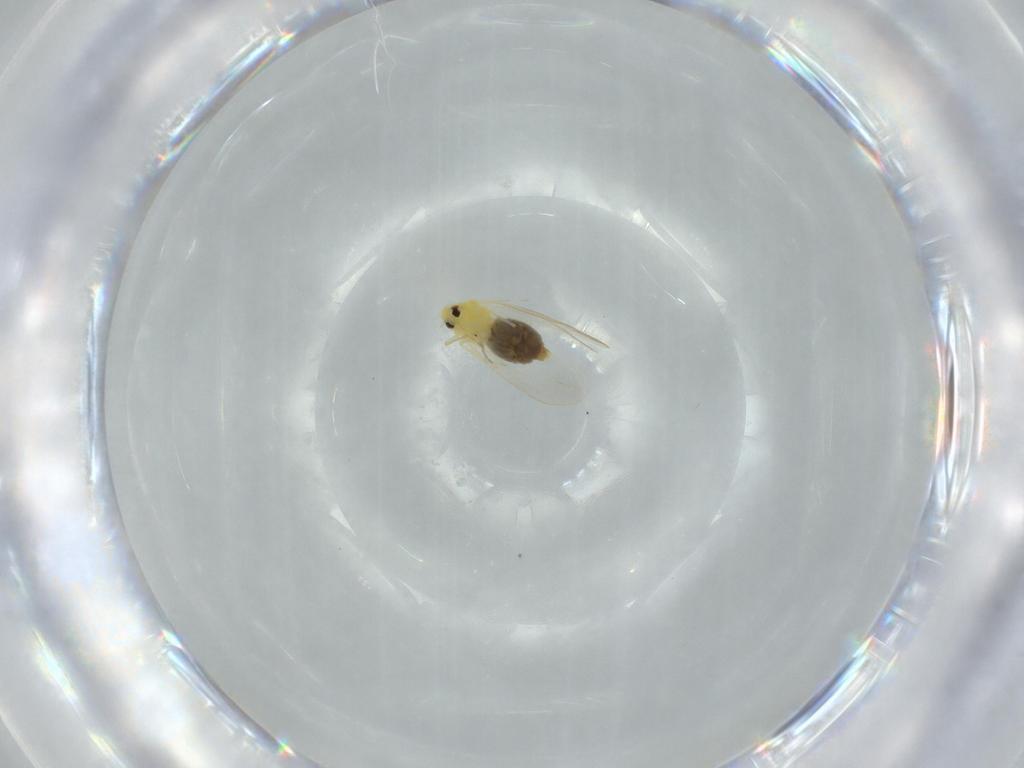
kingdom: Animalia
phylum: Arthropoda
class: Insecta
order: Hemiptera
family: Aleyrodidae
